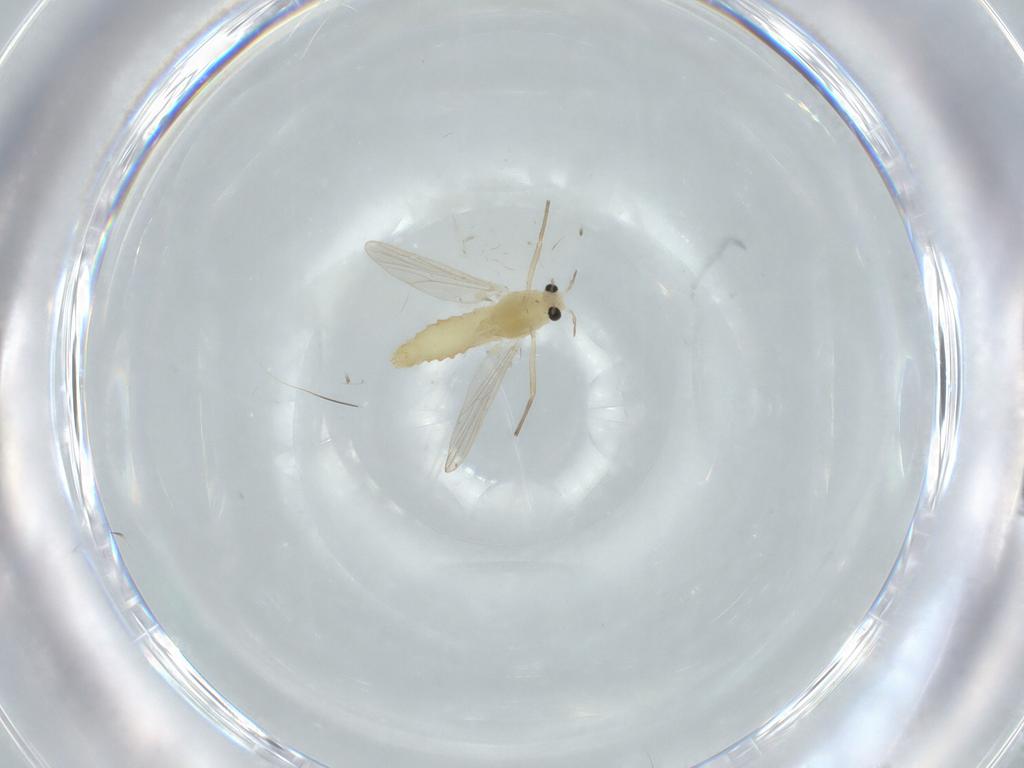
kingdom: Animalia
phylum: Arthropoda
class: Insecta
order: Diptera
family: Chironomidae
